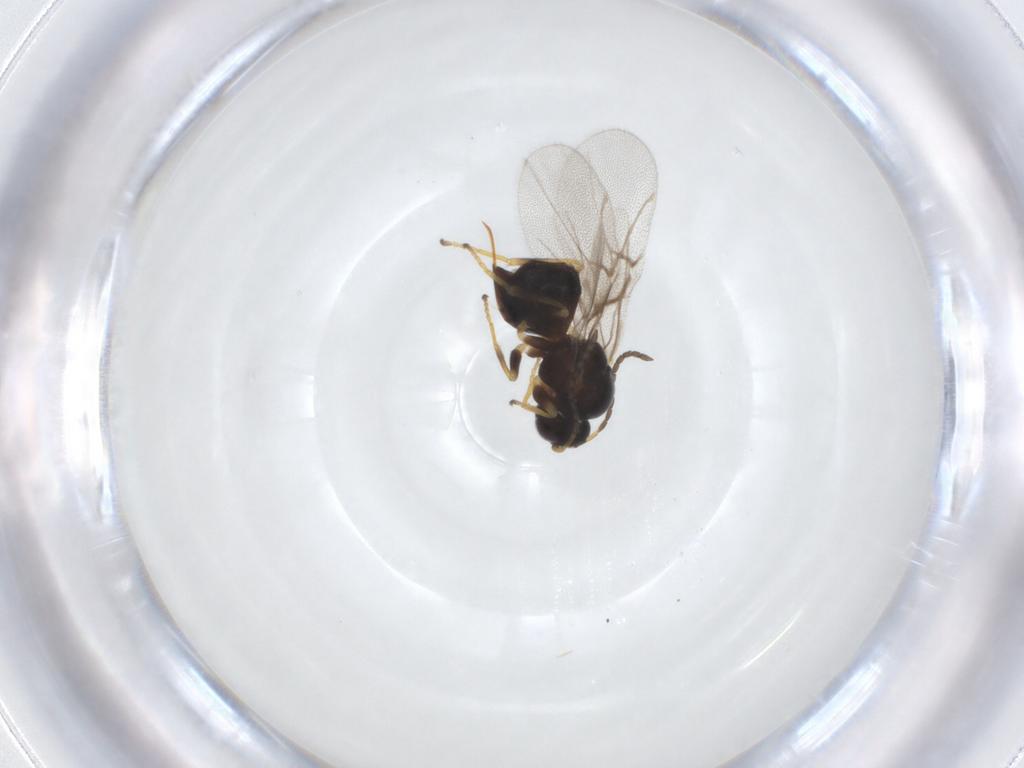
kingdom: Animalia
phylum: Arthropoda
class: Insecta
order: Hymenoptera
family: Cynipidae
